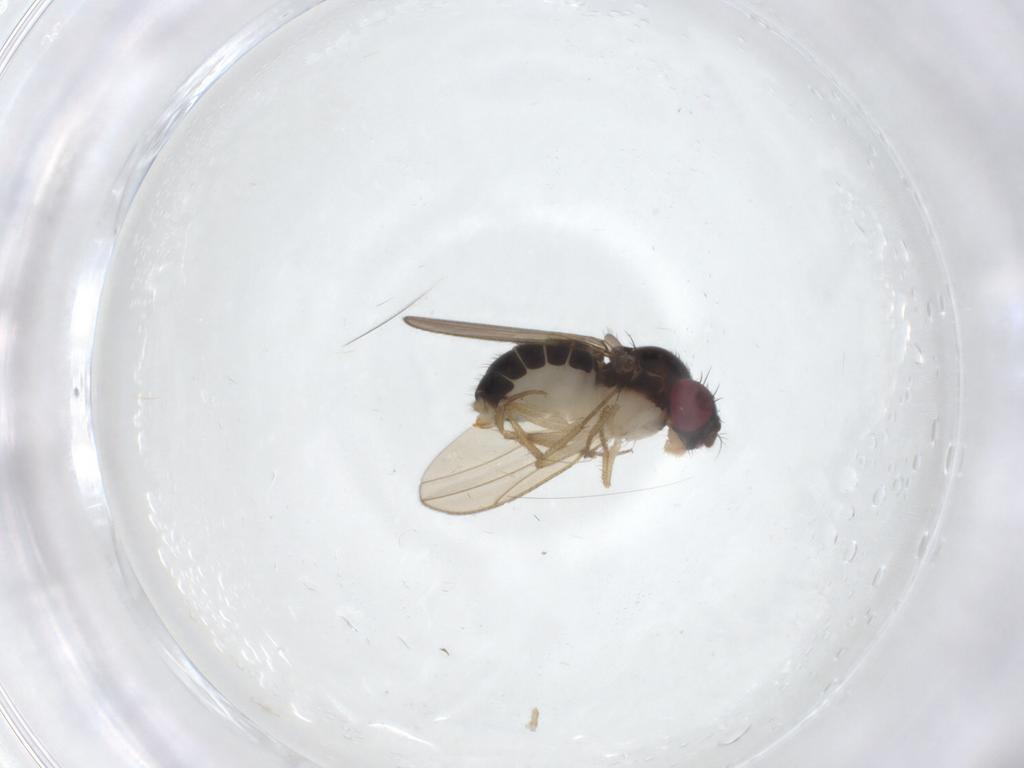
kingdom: Animalia
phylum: Arthropoda
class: Insecta
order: Diptera
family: Drosophilidae
